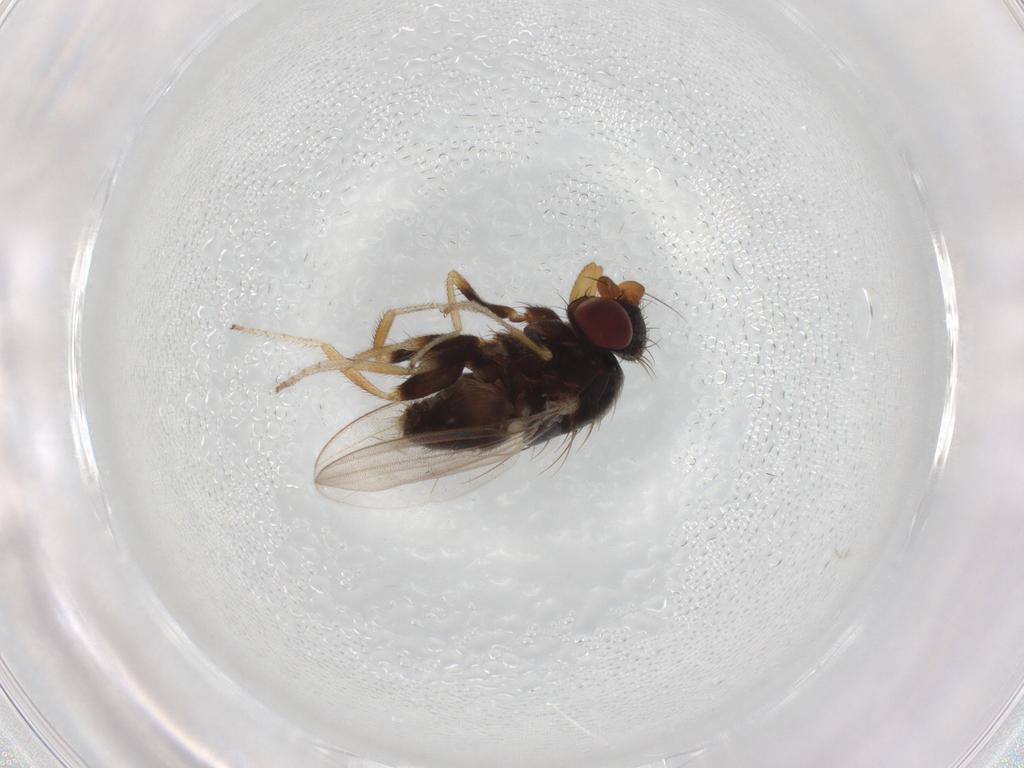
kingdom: Animalia
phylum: Arthropoda
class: Insecta
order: Diptera
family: Milichiidae
